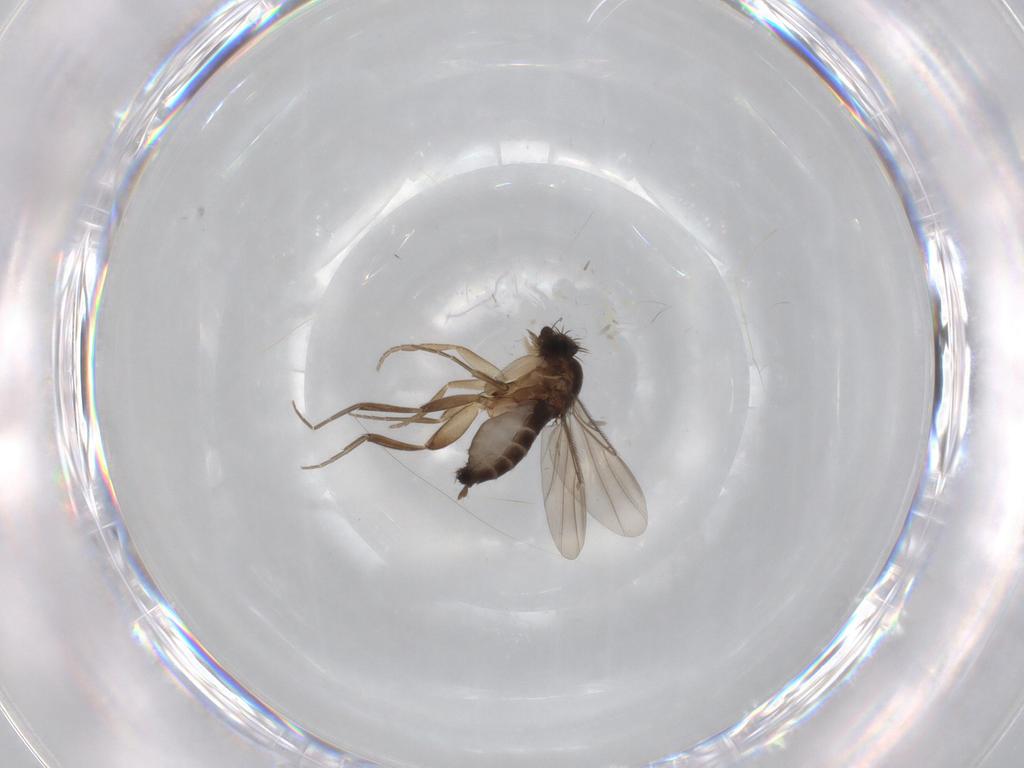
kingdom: Animalia
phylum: Arthropoda
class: Insecta
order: Diptera
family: Phoridae
